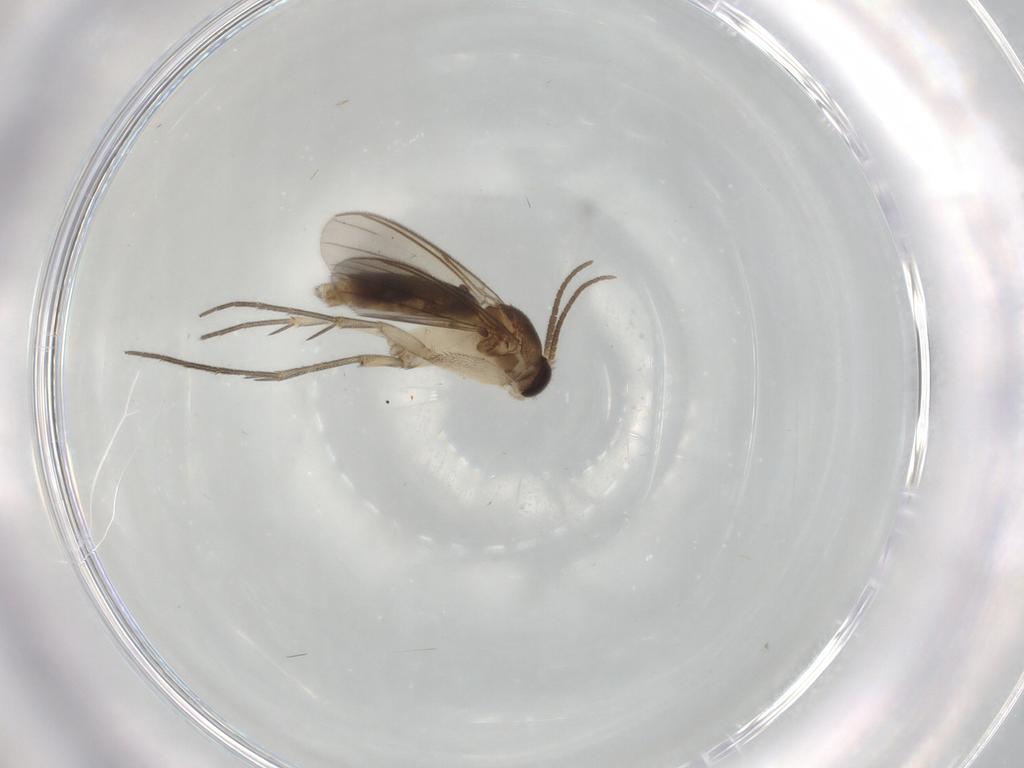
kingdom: Animalia
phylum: Arthropoda
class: Insecta
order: Diptera
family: Mycetophilidae
